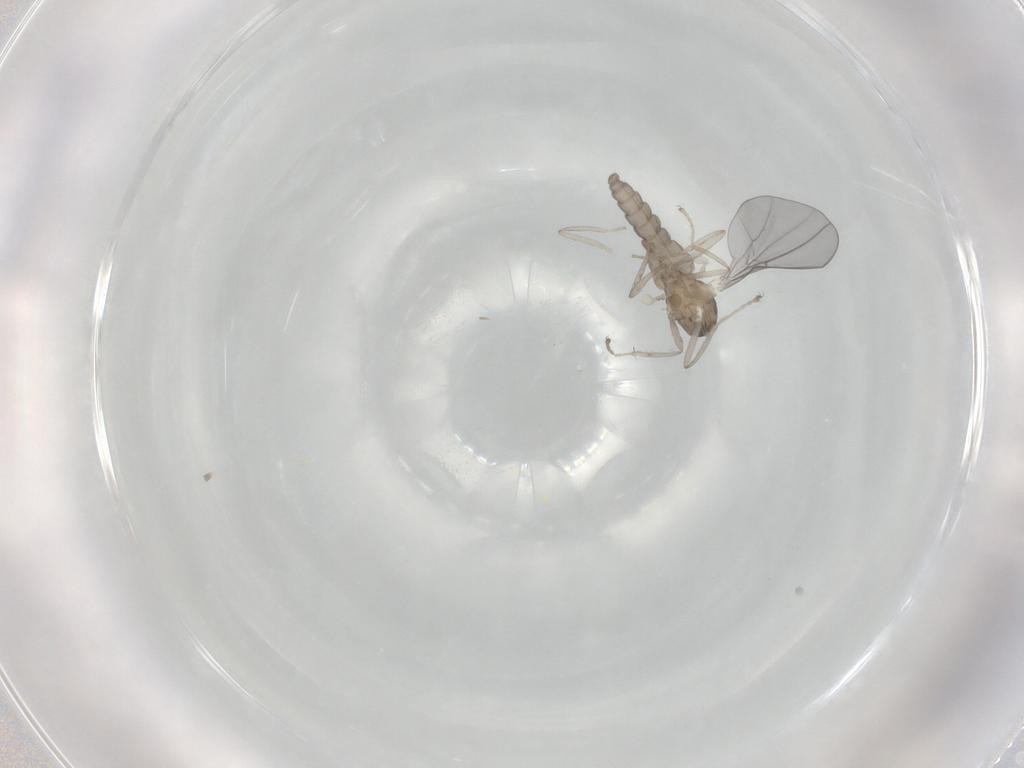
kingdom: Animalia
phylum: Arthropoda
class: Insecta
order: Diptera
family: Cecidomyiidae
